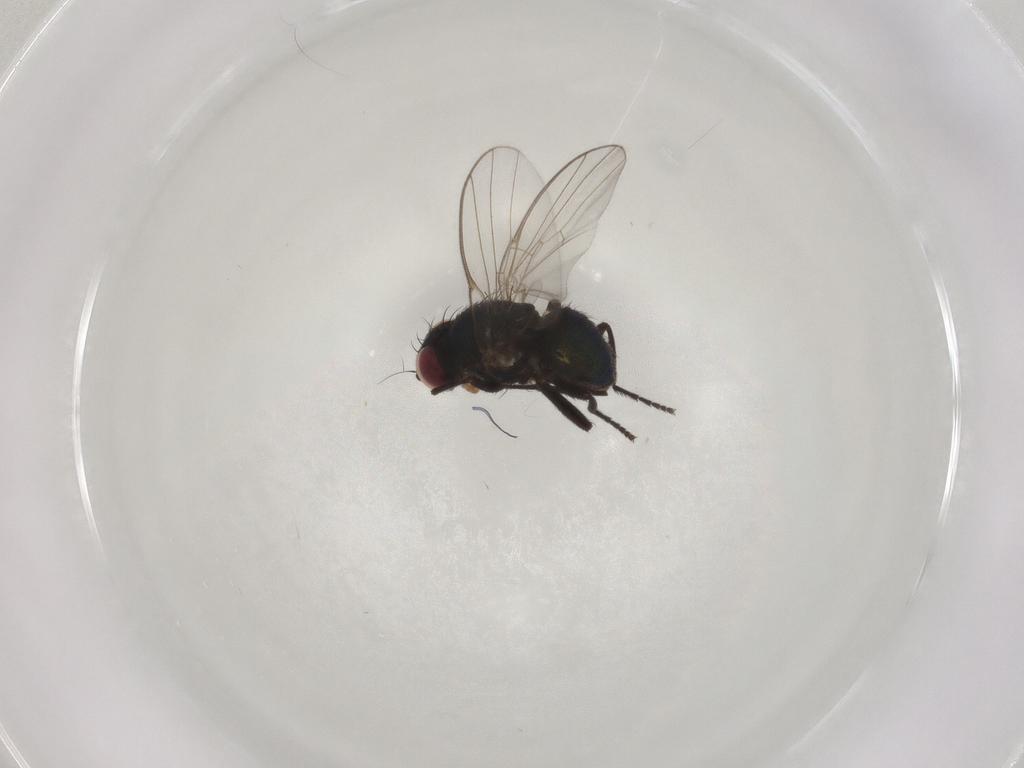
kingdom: Animalia
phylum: Arthropoda
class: Insecta
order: Diptera
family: Agromyzidae
